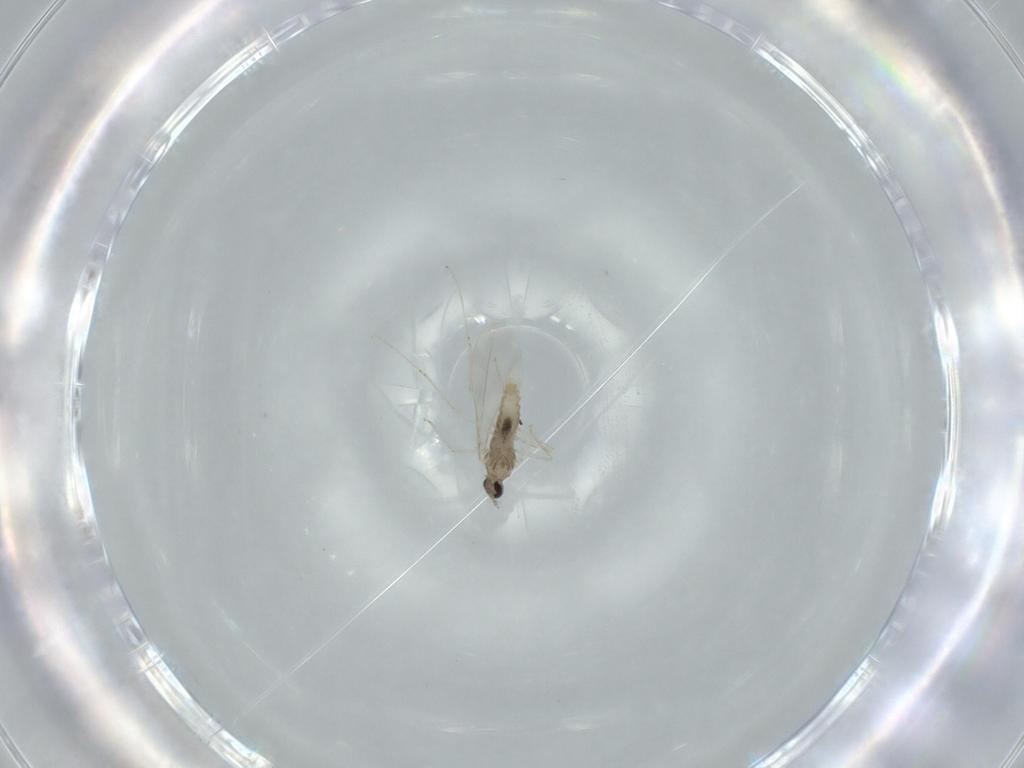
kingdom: Animalia
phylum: Arthropoda
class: Insecta
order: Diptera
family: Cecidomyiidae
